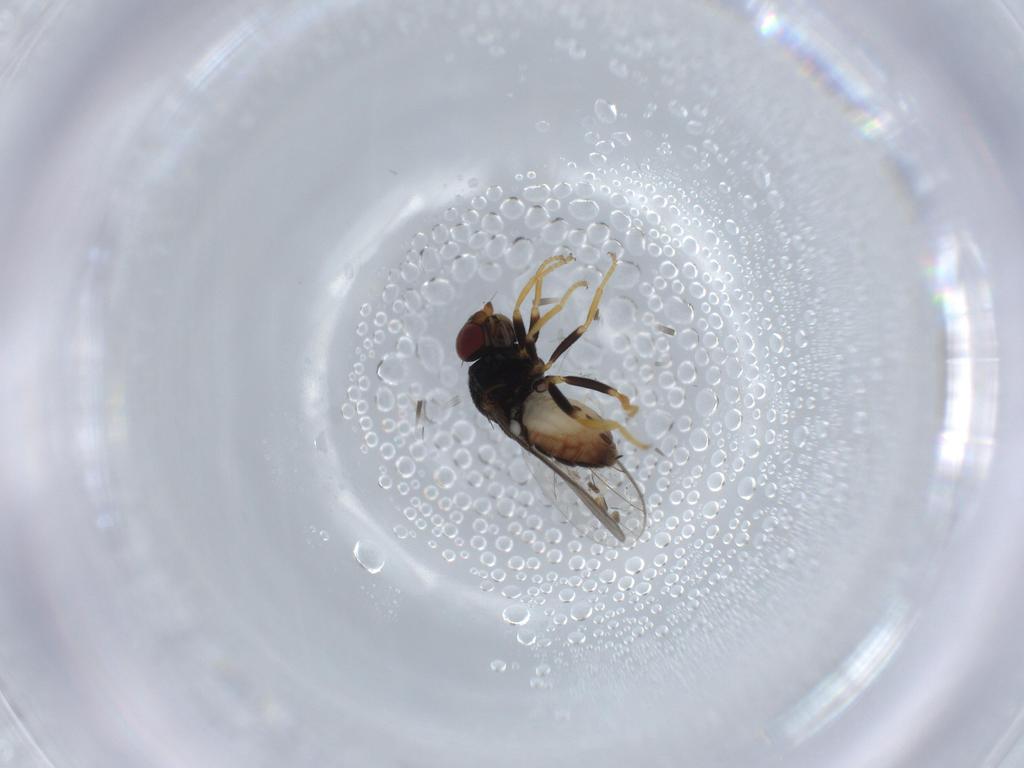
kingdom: Animalia
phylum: Arthropoda
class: Insecta
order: Diptera
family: Chloropidae
